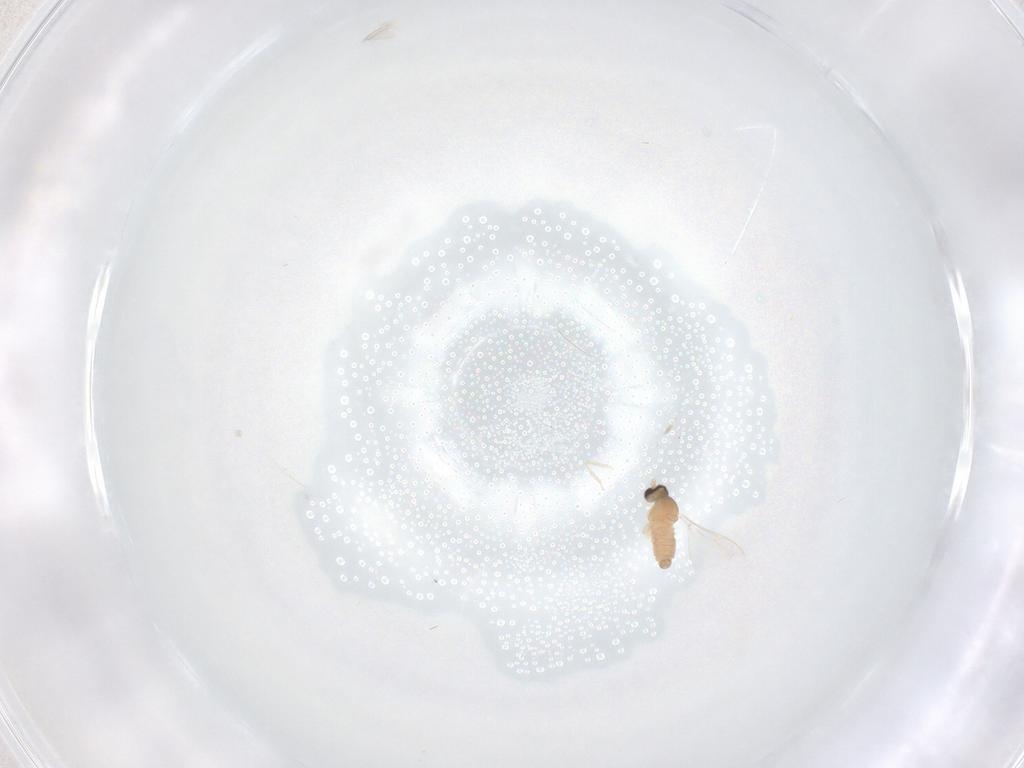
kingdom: Animalia
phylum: Arthropoda
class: Insecta
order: Diptera
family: Cecidomyiidae
